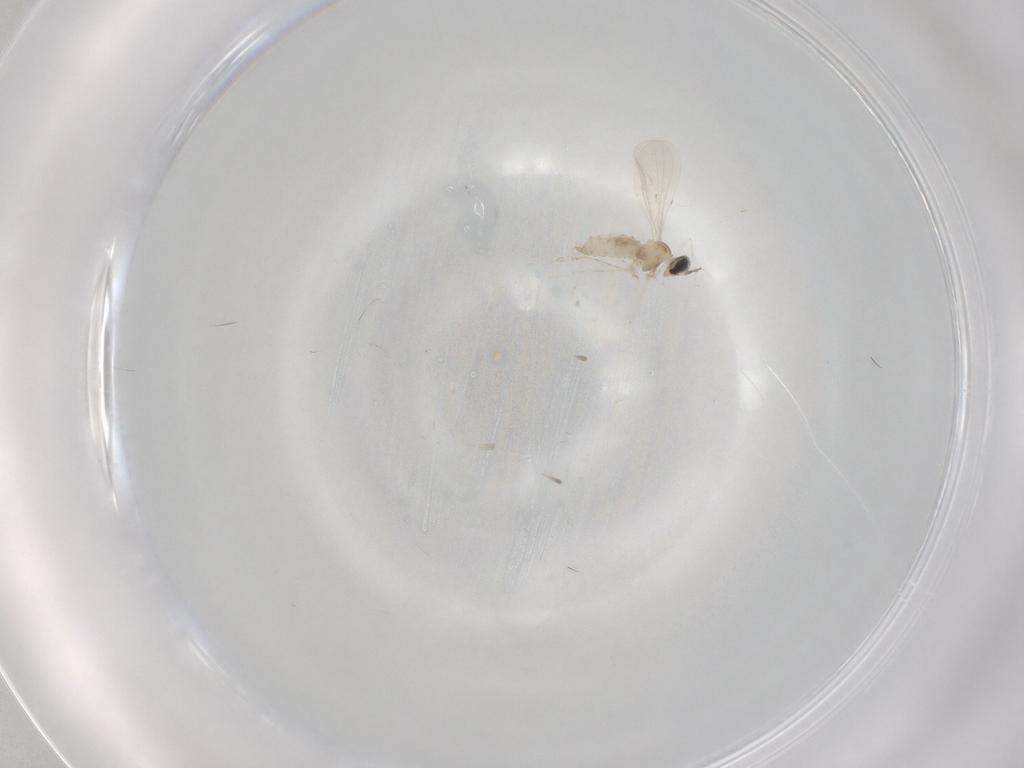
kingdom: Animalia
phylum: Arthropoda
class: Insecta
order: Diptera
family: Cecidomyiidae
